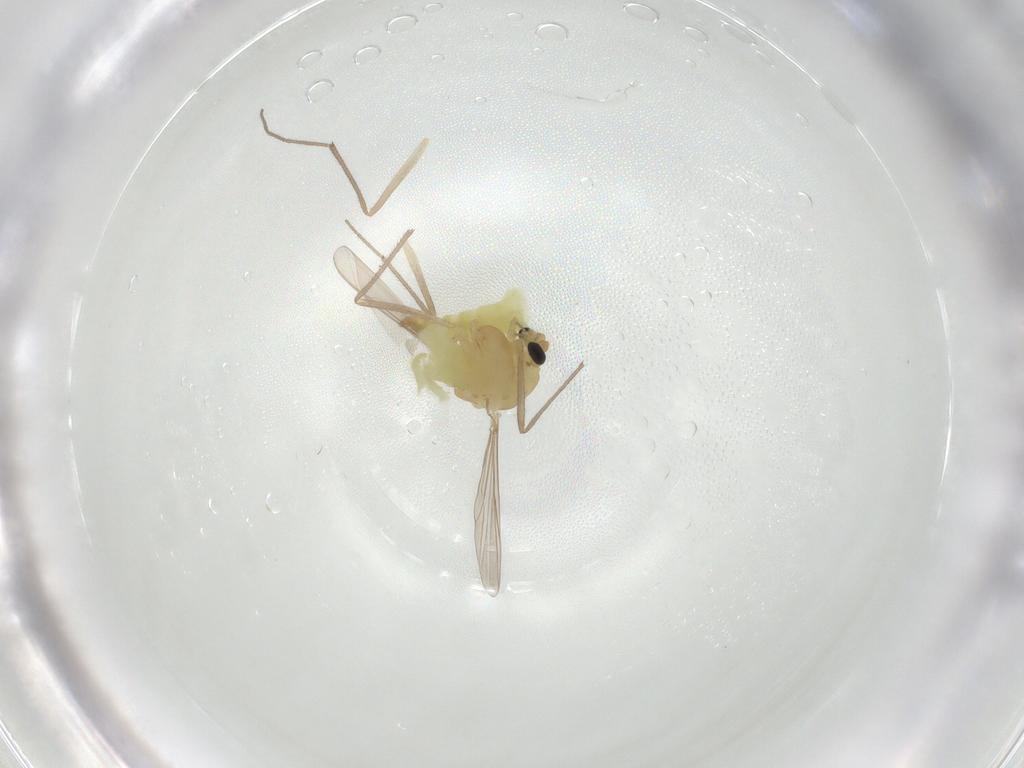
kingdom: Animalia
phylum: Arthropoda
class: Insecta
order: Diptera
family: Chironomidae
